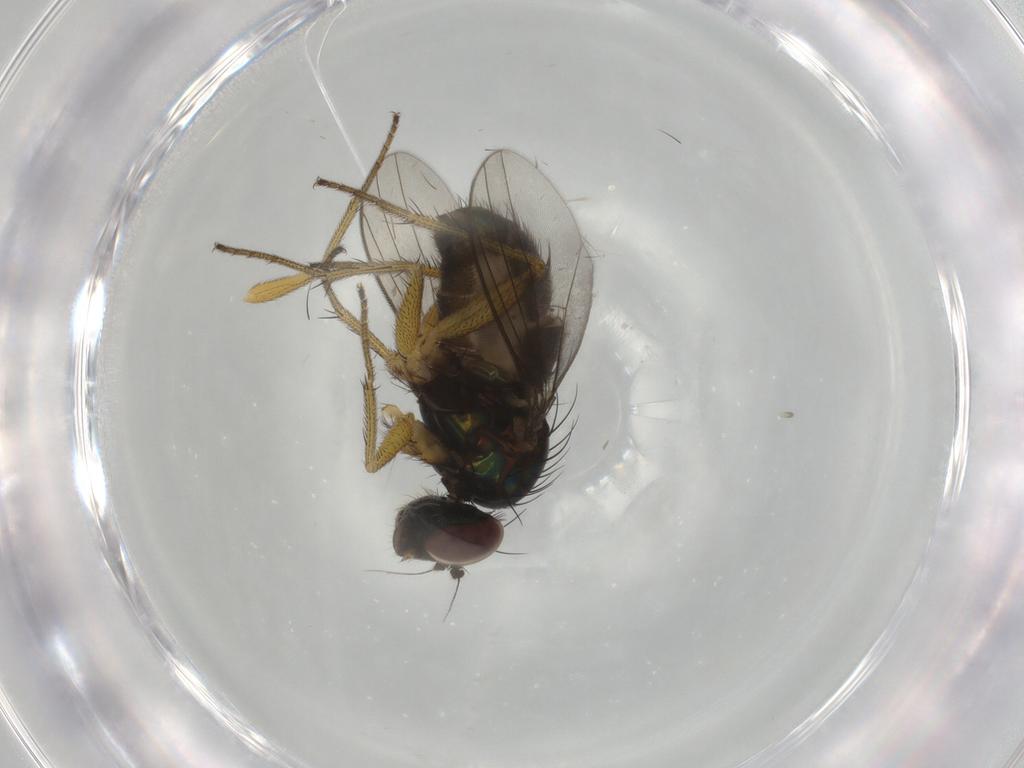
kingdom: Animalia
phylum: Arthropoda
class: Insecta
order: Diptera
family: Dolichopodidae
